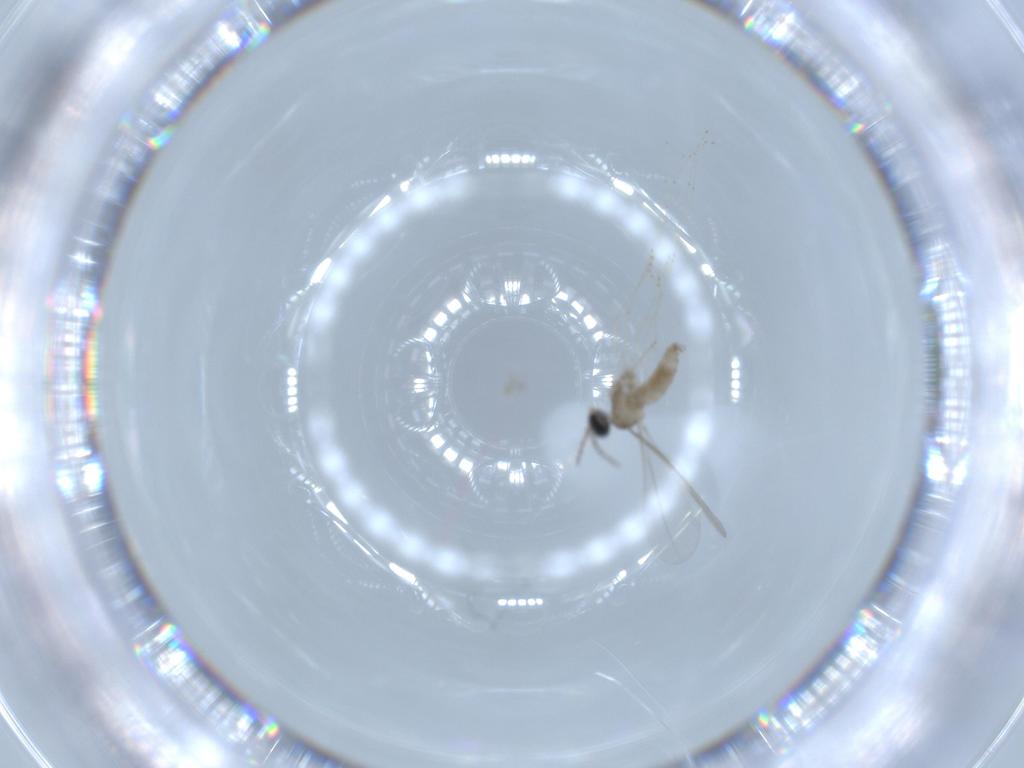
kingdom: Animalia
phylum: Arthropoda
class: Insecta
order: Diptera
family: Cecidomyiidae
